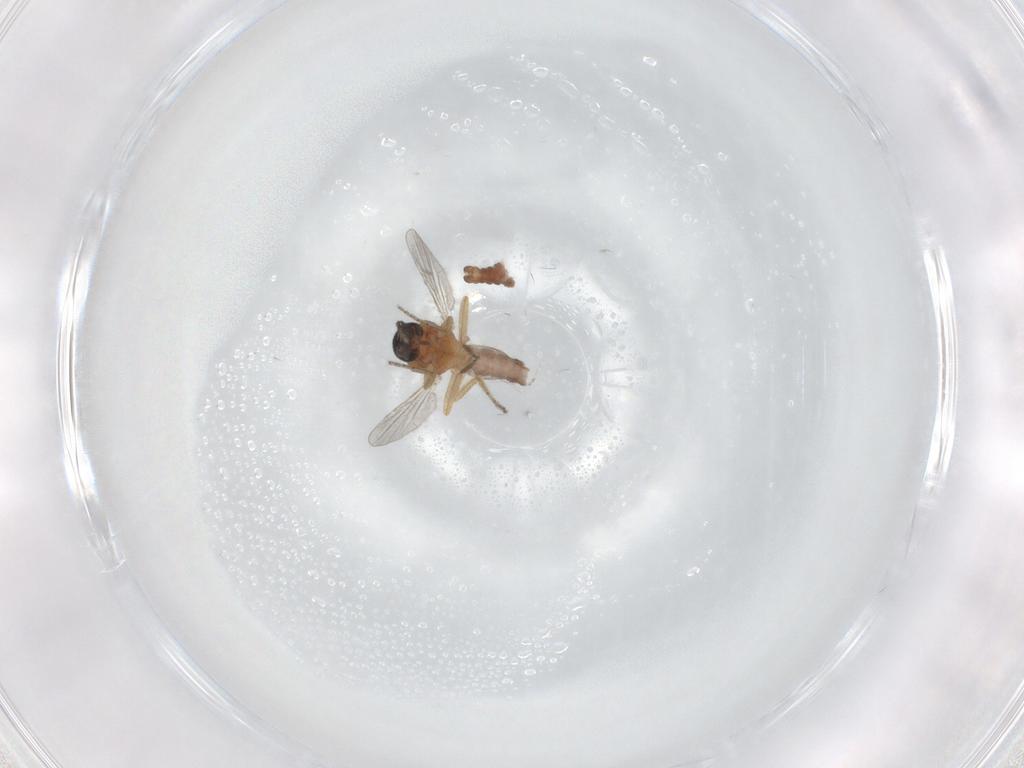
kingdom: Animalia
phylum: Arthropoda
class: Insecta
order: Diptera
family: Ceratopogonidae
